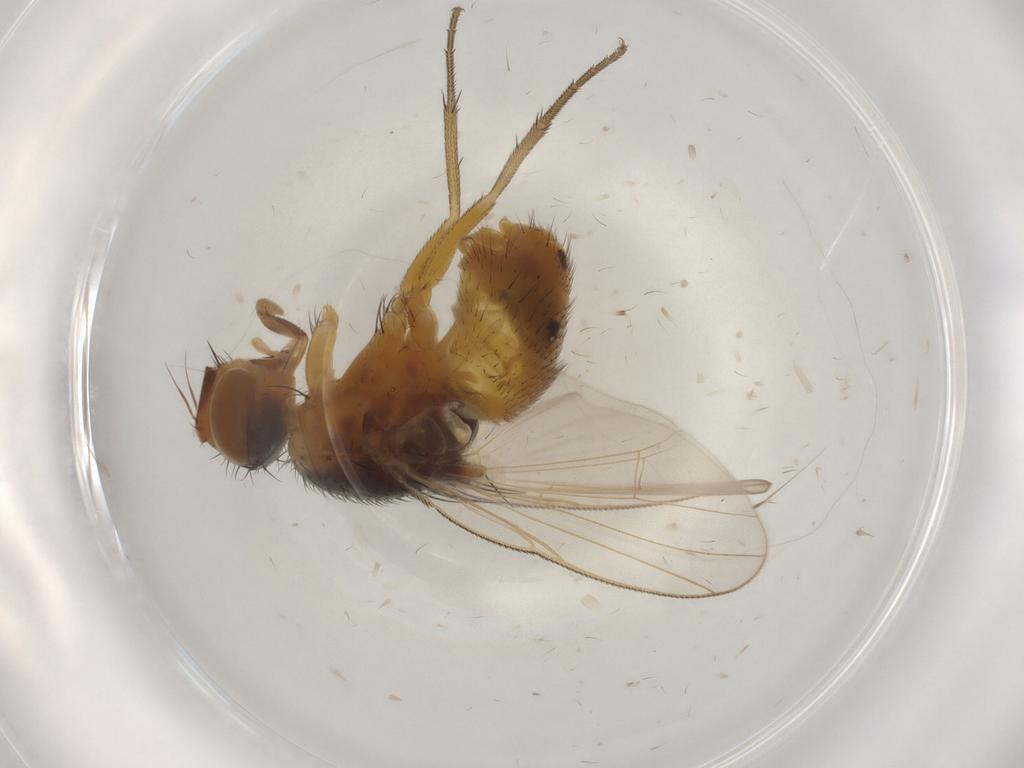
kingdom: Animalia
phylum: Arthropoda
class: Insecta
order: Diptera
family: Muscidae
